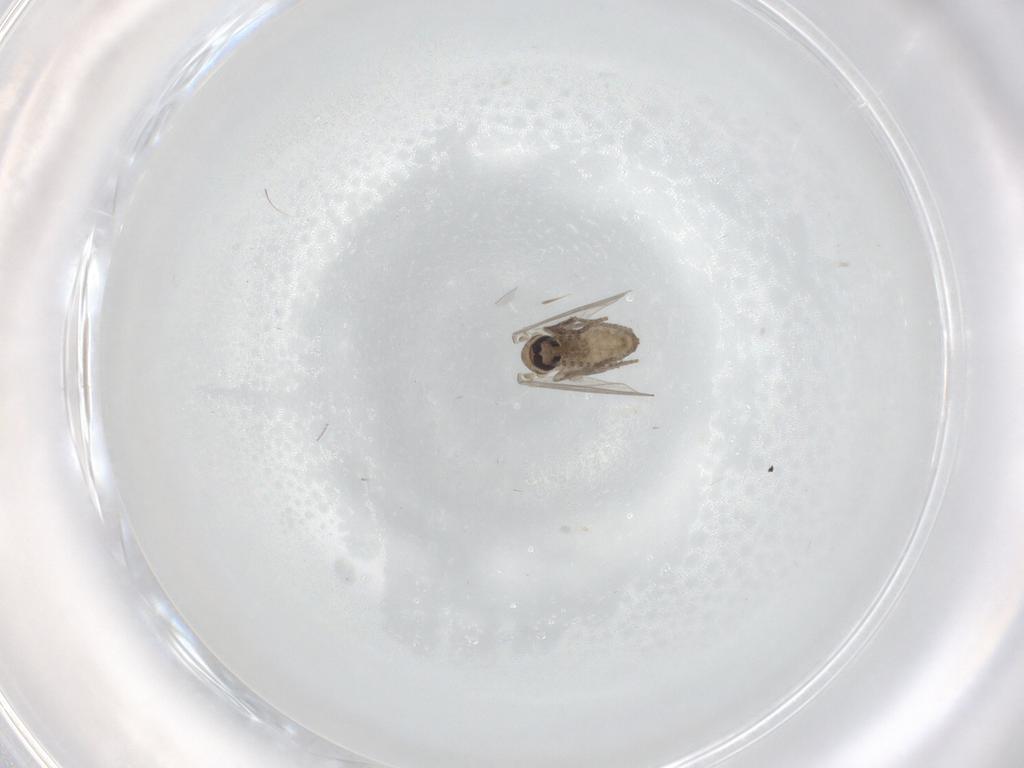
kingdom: Animalia
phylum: Arthropoda
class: Insecta
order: Diptera
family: Limoniidae
